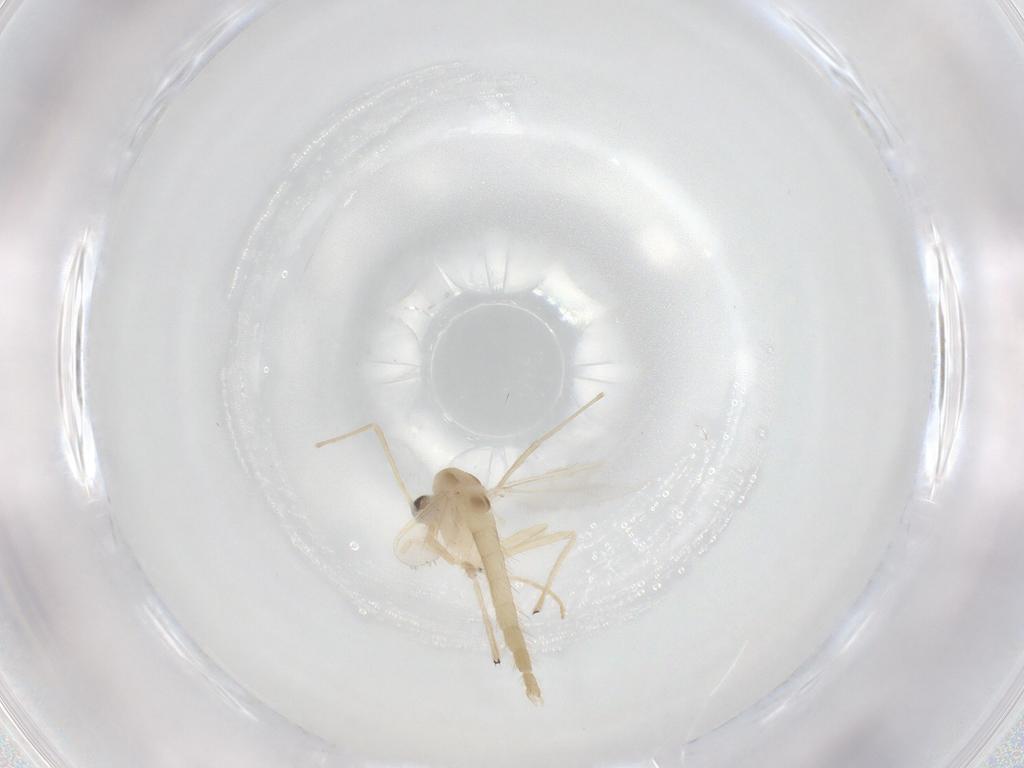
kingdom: Animalia
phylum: Arthropoda
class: Insecta
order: Diptera
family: Chironomidae
